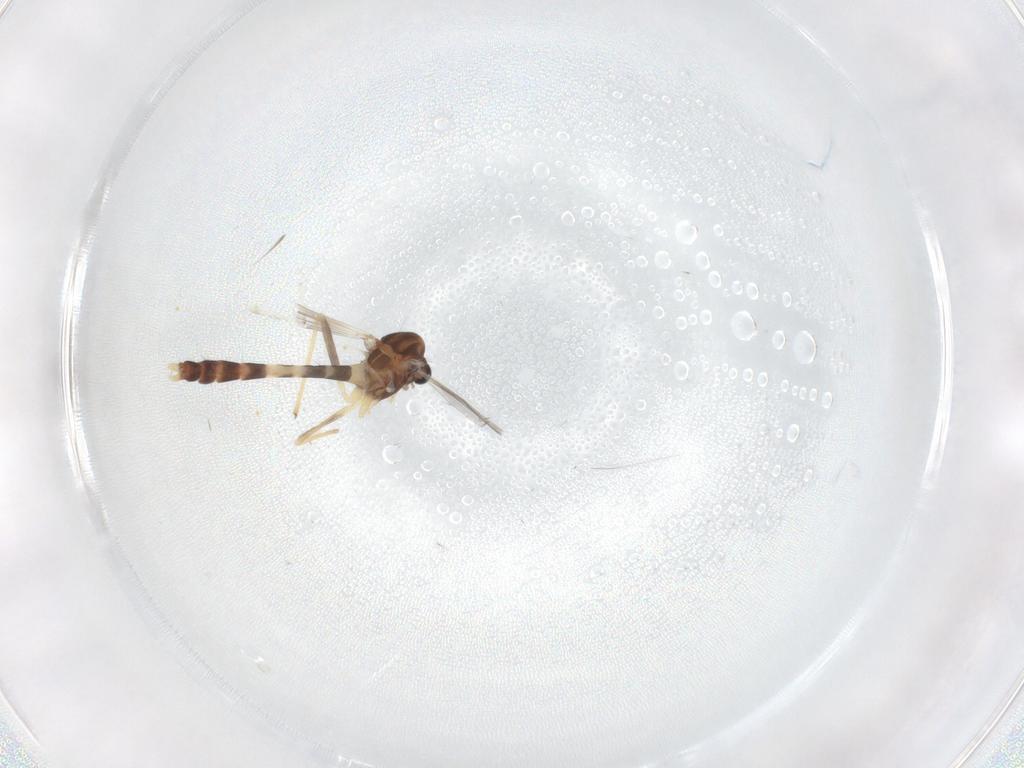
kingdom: Animalia
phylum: Arthropoda
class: Insecta
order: Diptera
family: Chironomidae
